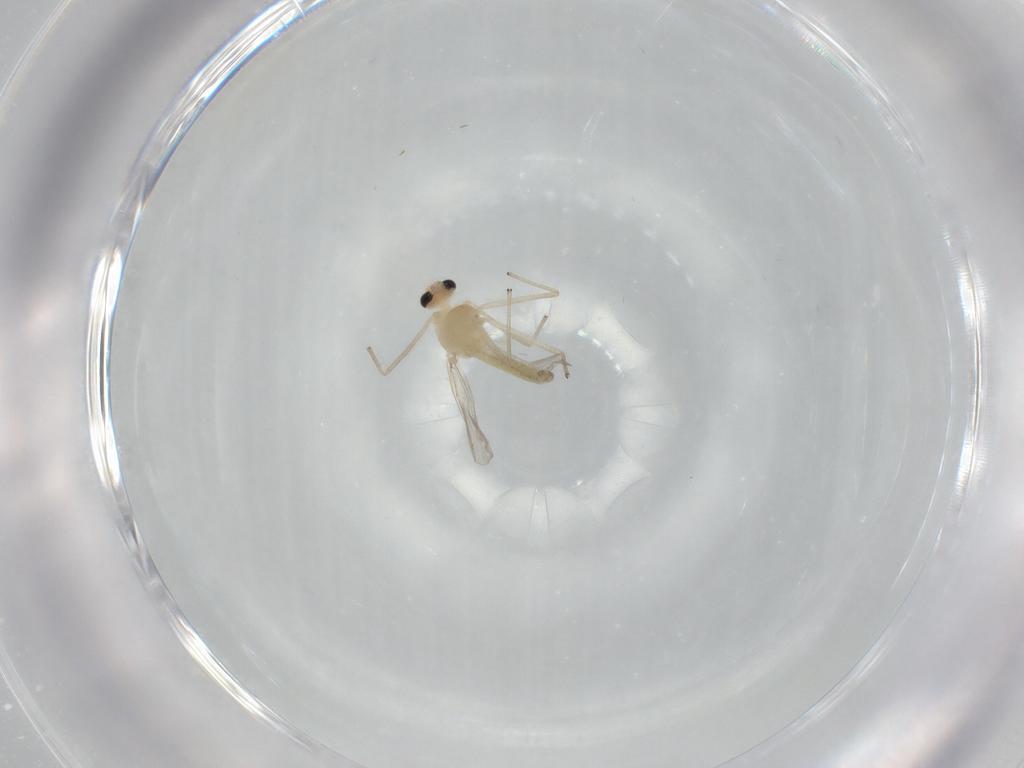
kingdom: Animalia
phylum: Arthropoda
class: Insecta
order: Diptera
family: Chironomidae
